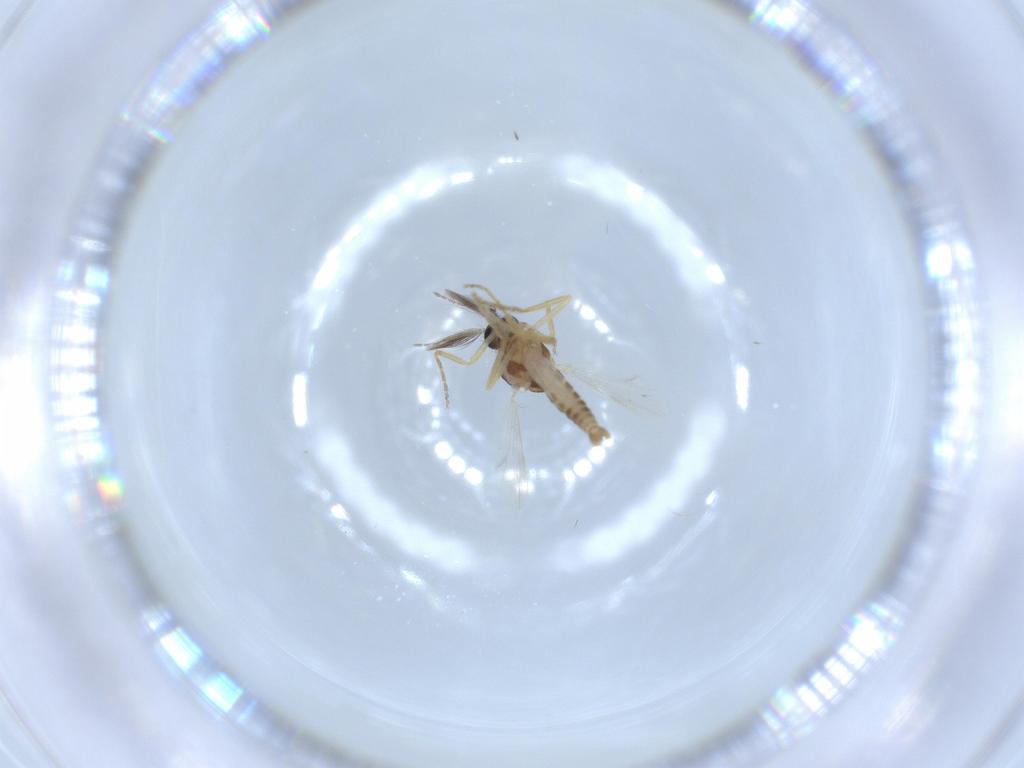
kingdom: Animalia
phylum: Arthropoda
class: Insecta
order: Diptera
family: Ceratopogonidae
